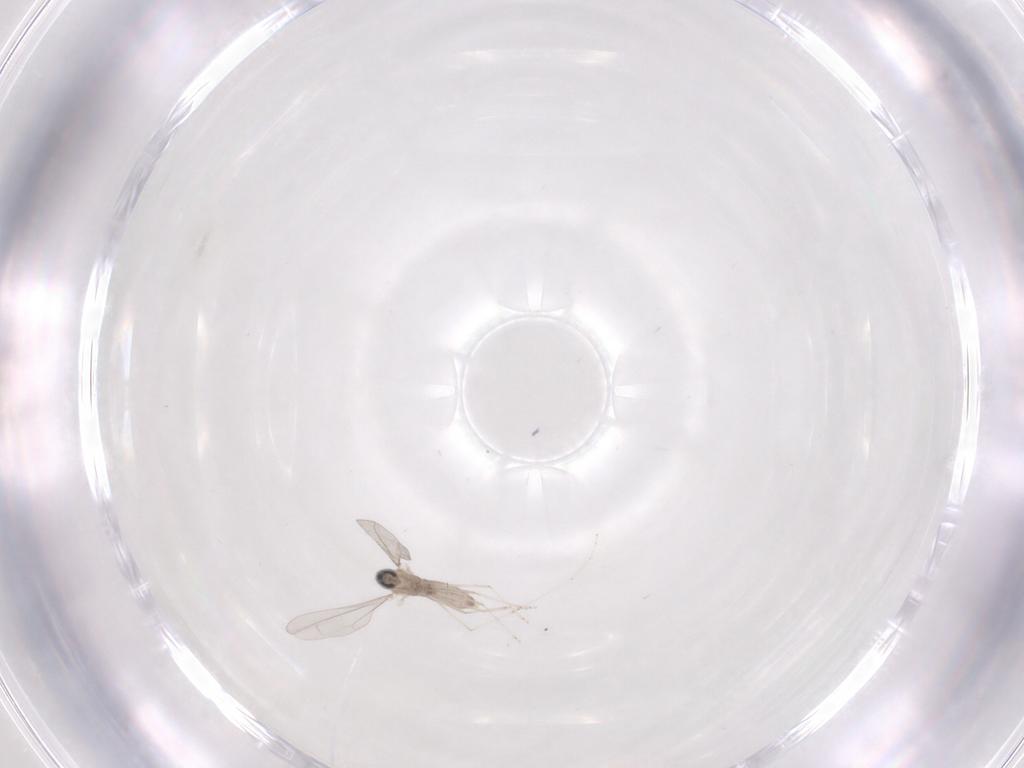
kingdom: Animalia
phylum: Arthropoda
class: Insecta
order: Diptera
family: Cecidomyiidae
